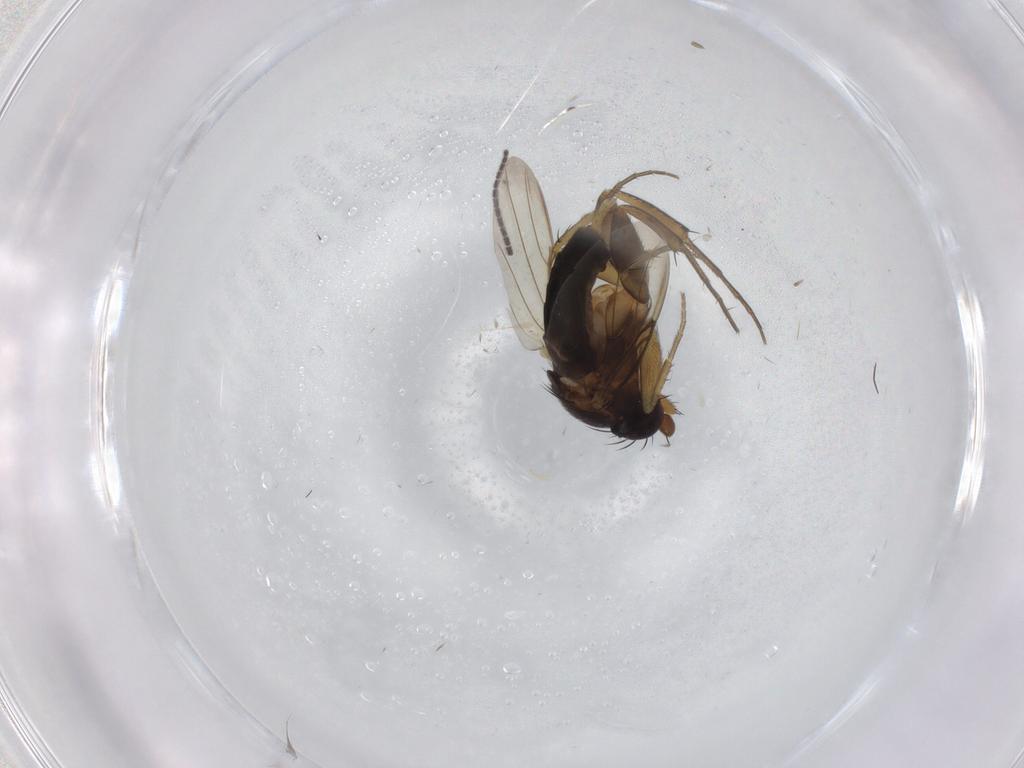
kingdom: Animalia
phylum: Arthropoda
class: Insecta
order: Diptera
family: Phoridae
